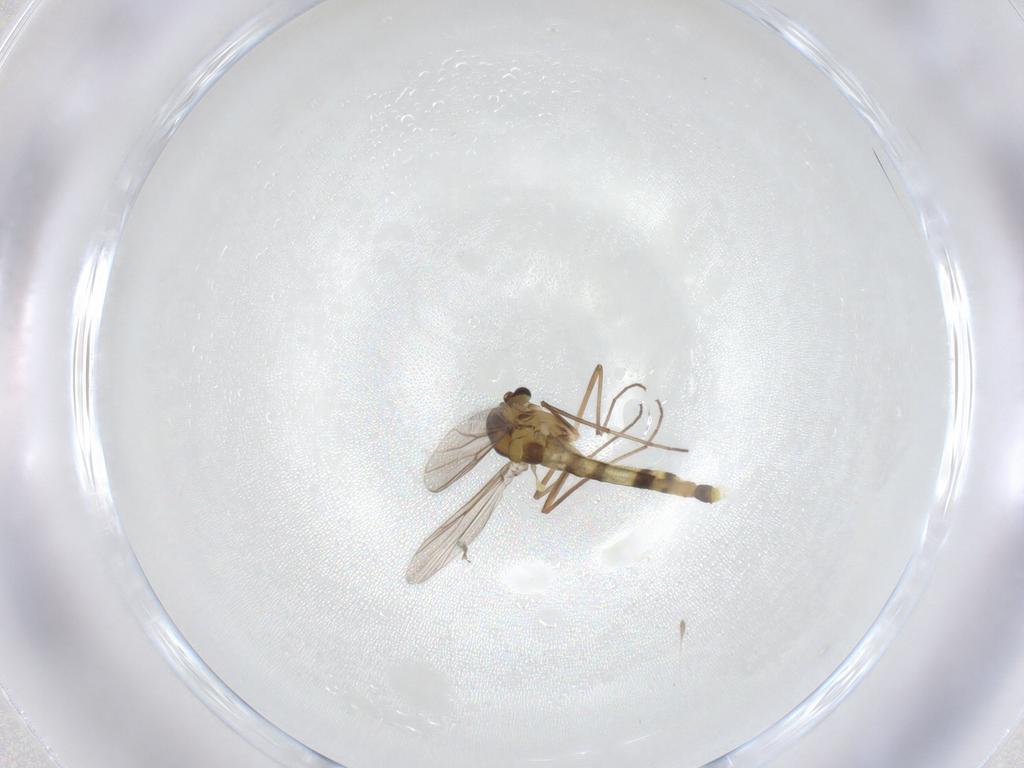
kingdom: Animalia
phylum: Arthropoda
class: Insecta
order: Diptera
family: Chironomidae
